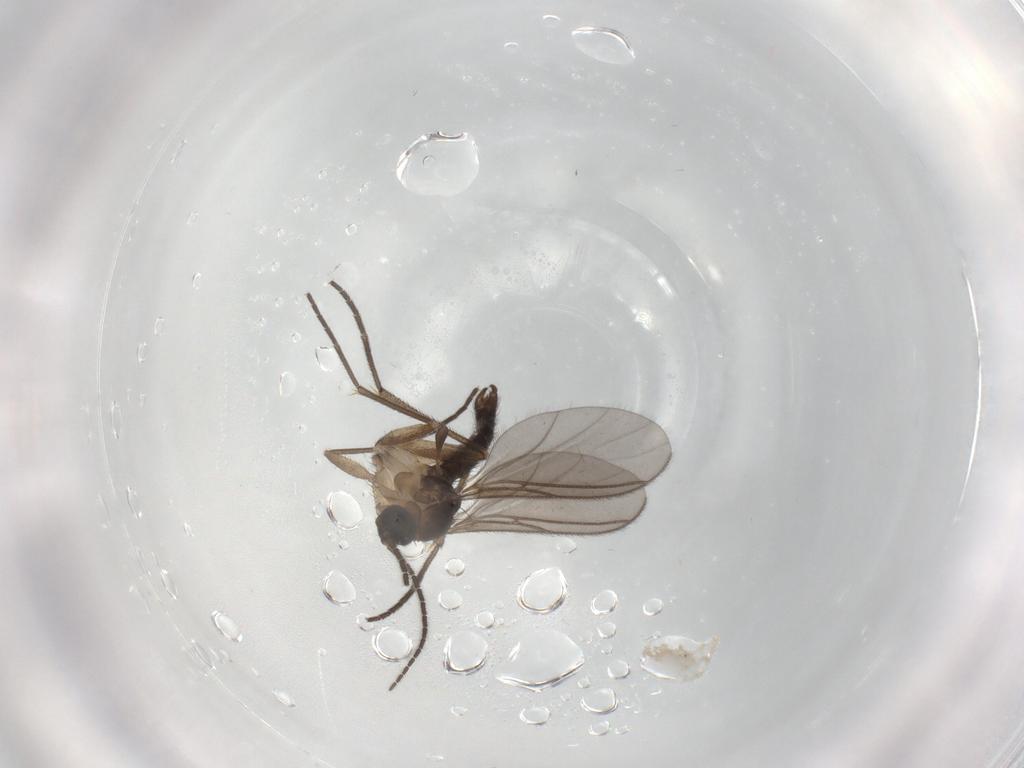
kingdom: Animalia
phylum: Arthropoda
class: Insecta
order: Diptera
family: Sciaridae
